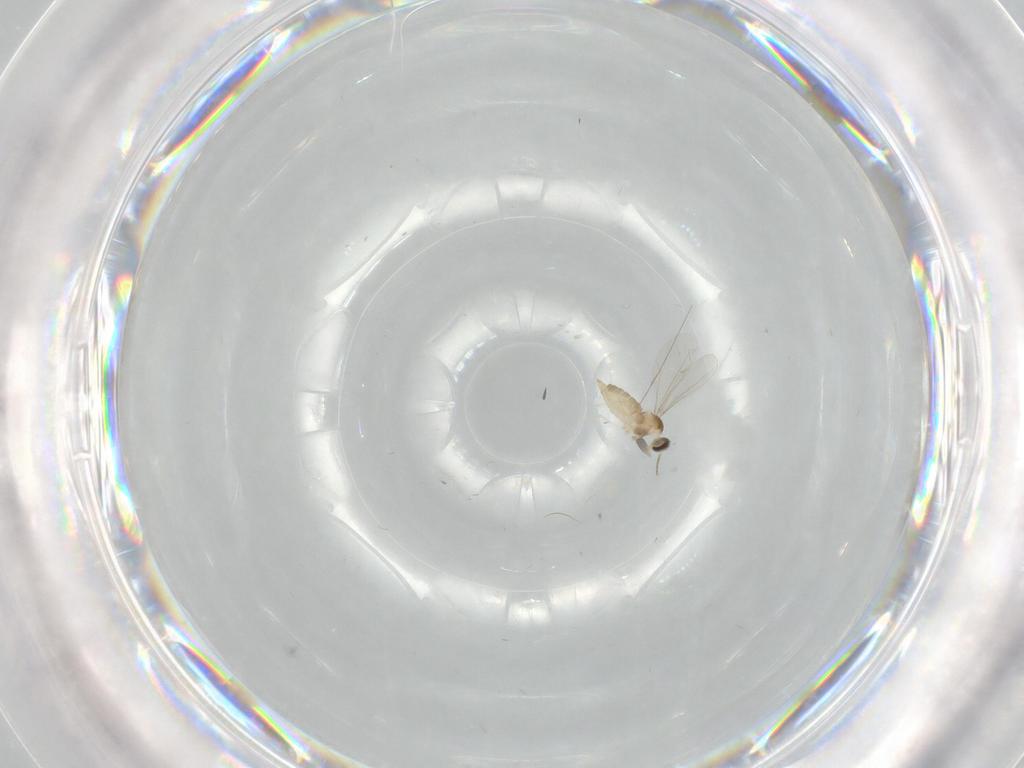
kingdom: Animalia
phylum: Arthropoda
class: Insecta
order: Diptera
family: Cecidomyiidae
